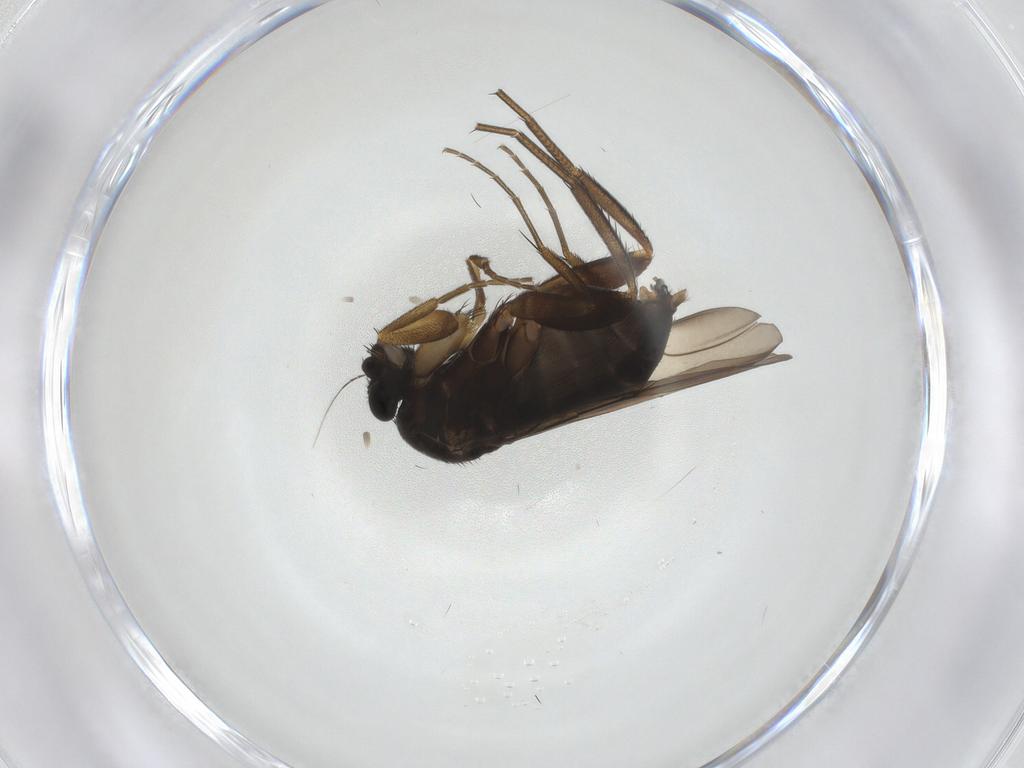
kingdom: Animalia
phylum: Arthropoda
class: Insecta
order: Diptera
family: Phoridae
